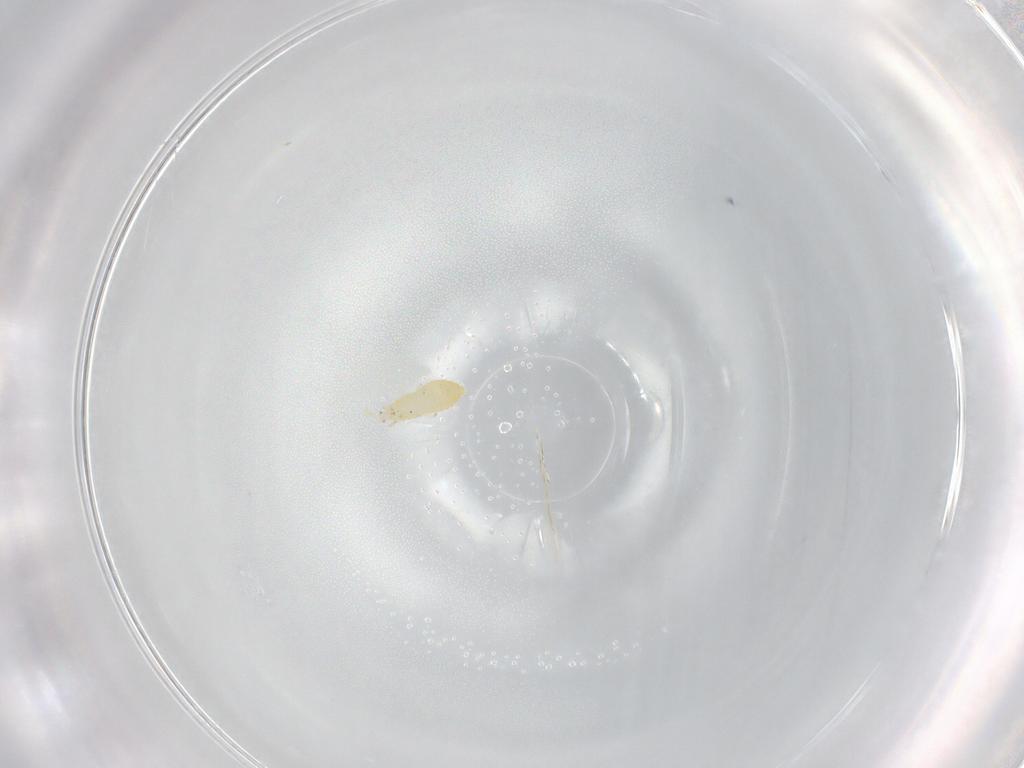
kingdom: Animalia
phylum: Arthropoda
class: Insecta
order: Thysanoptera
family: Thripidae
